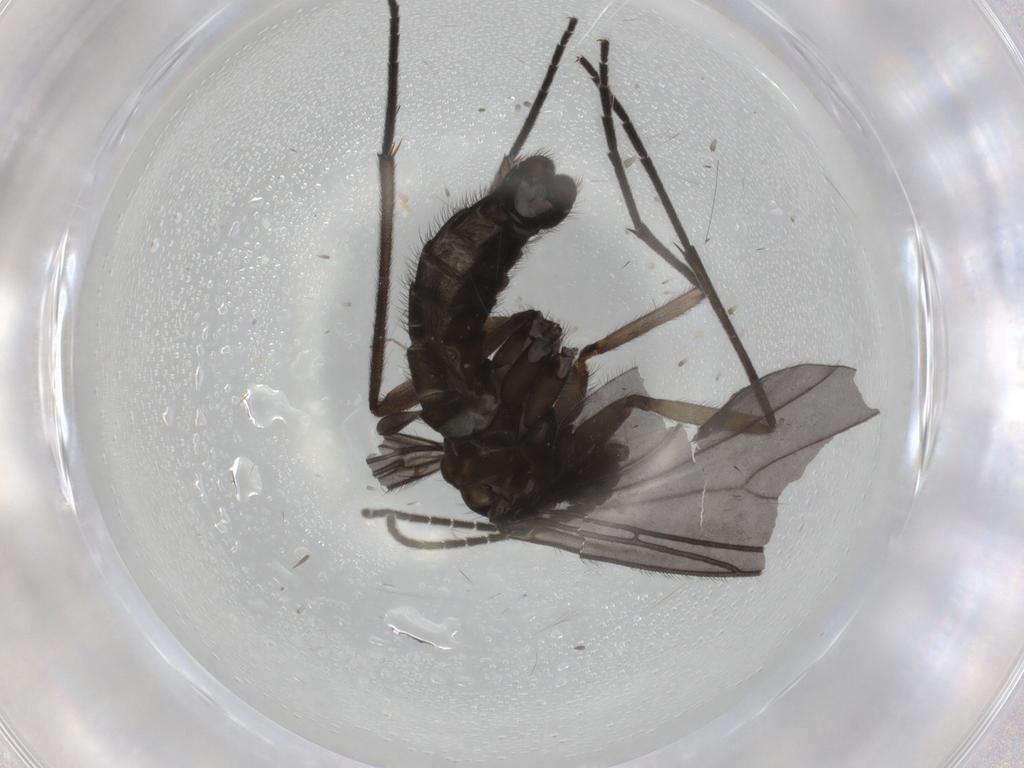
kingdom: Animalia
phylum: Arthropoda
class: Insecta
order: Diptera
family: Sciaridae
